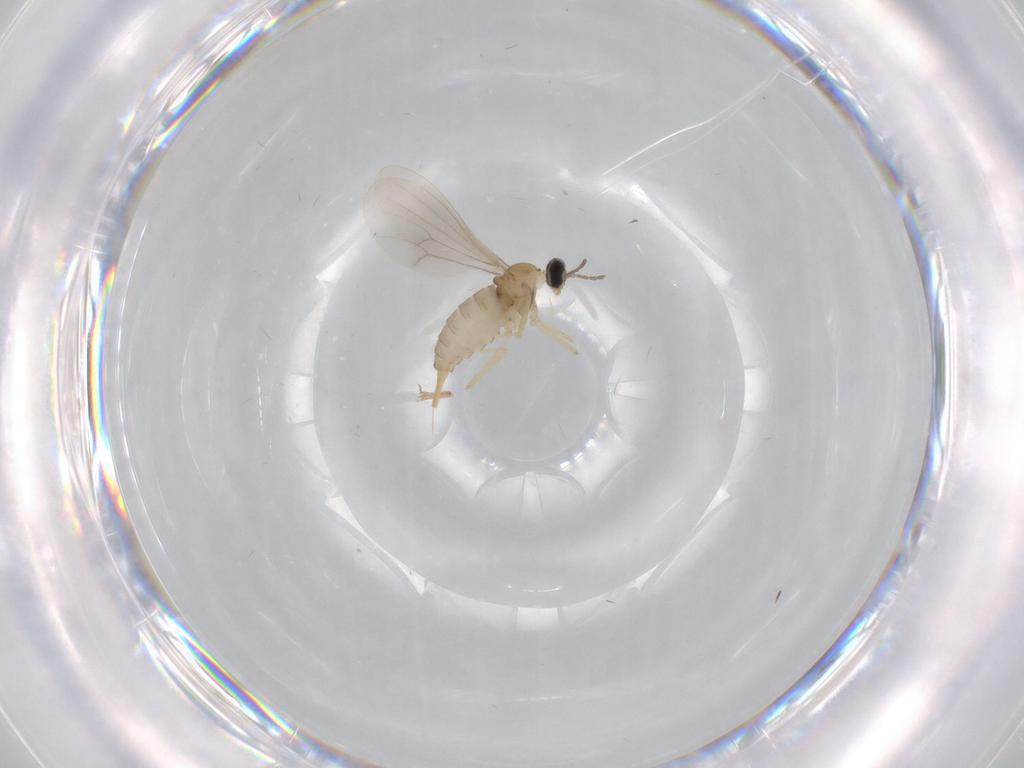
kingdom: Animalia
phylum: Arthropoda
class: Insecta
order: Diptera
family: Cecidomyiidae
